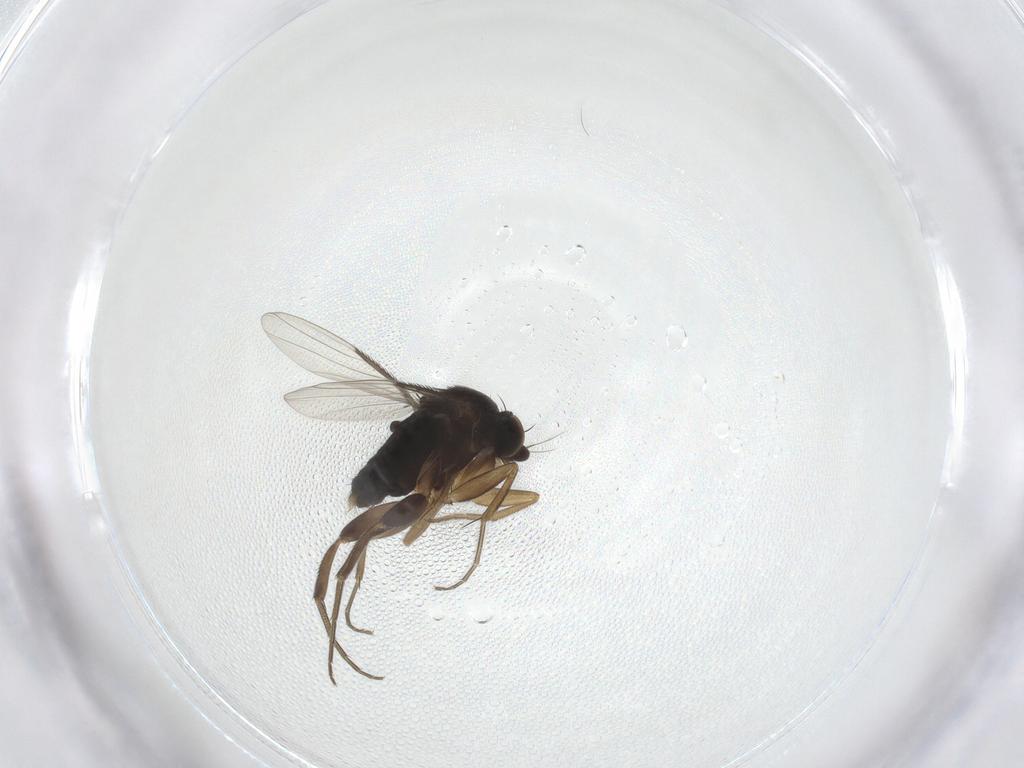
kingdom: Animalia
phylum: Arthropoda
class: Insecta
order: Diptera
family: Phoridae
